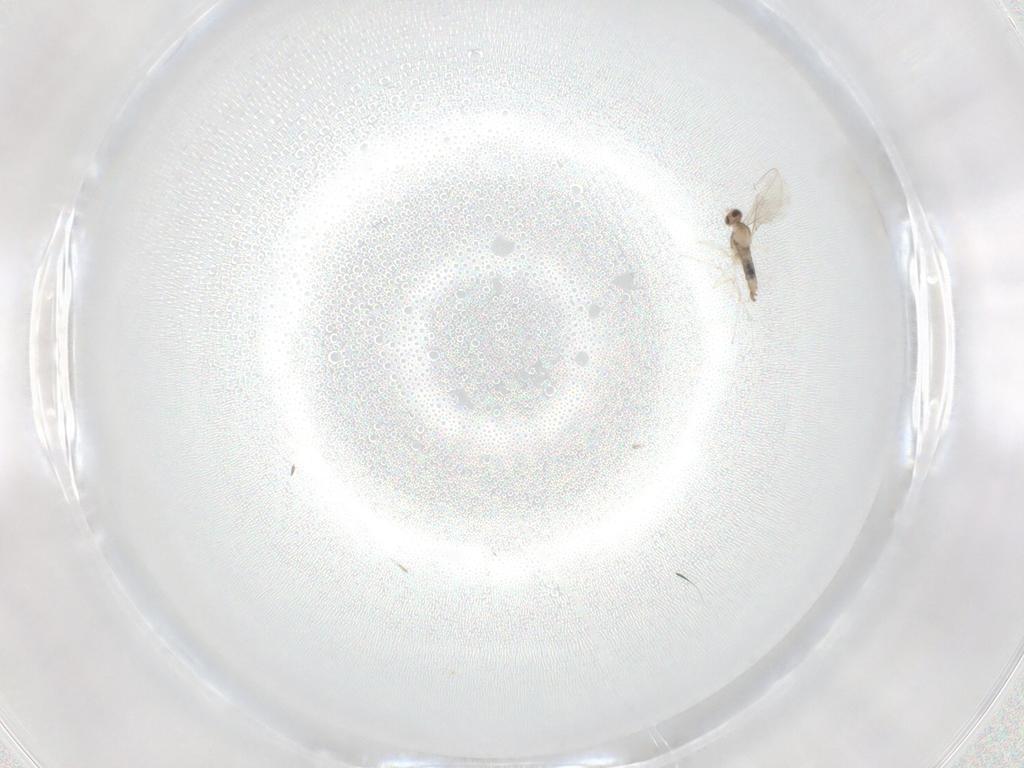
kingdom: Animalia
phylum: Arthropoda
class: Insecta
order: Diptera
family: Cecidomyiidae
